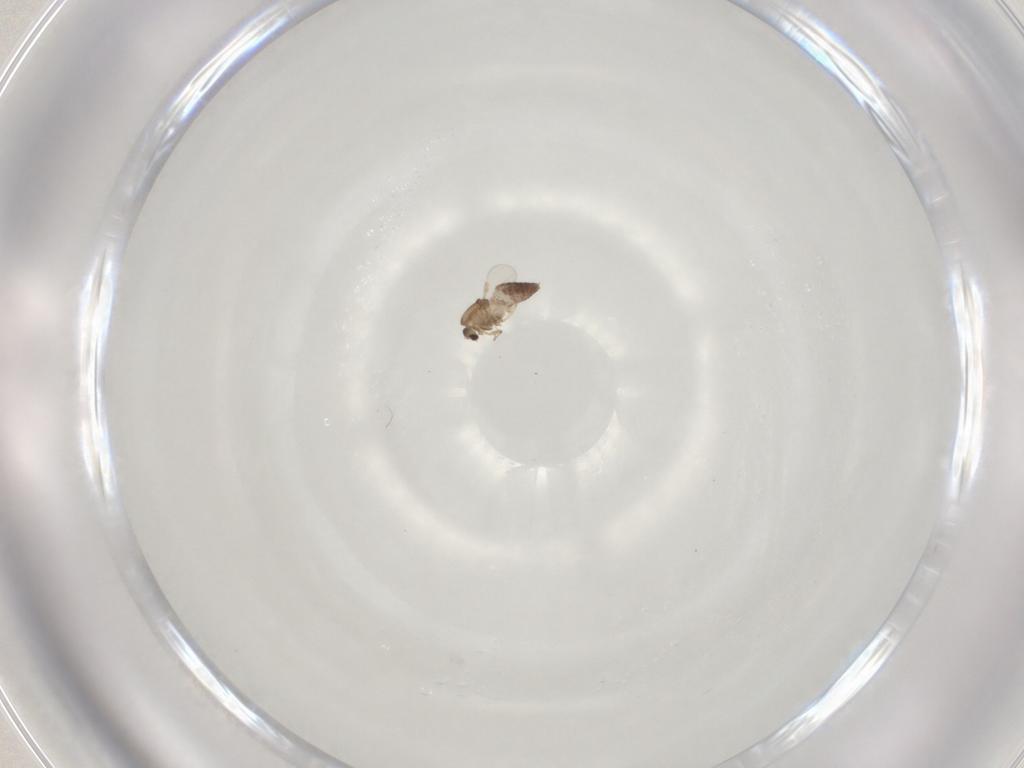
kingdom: Animalia
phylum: Arthropoda
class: Insecta
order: Diptera
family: Chironomidae
